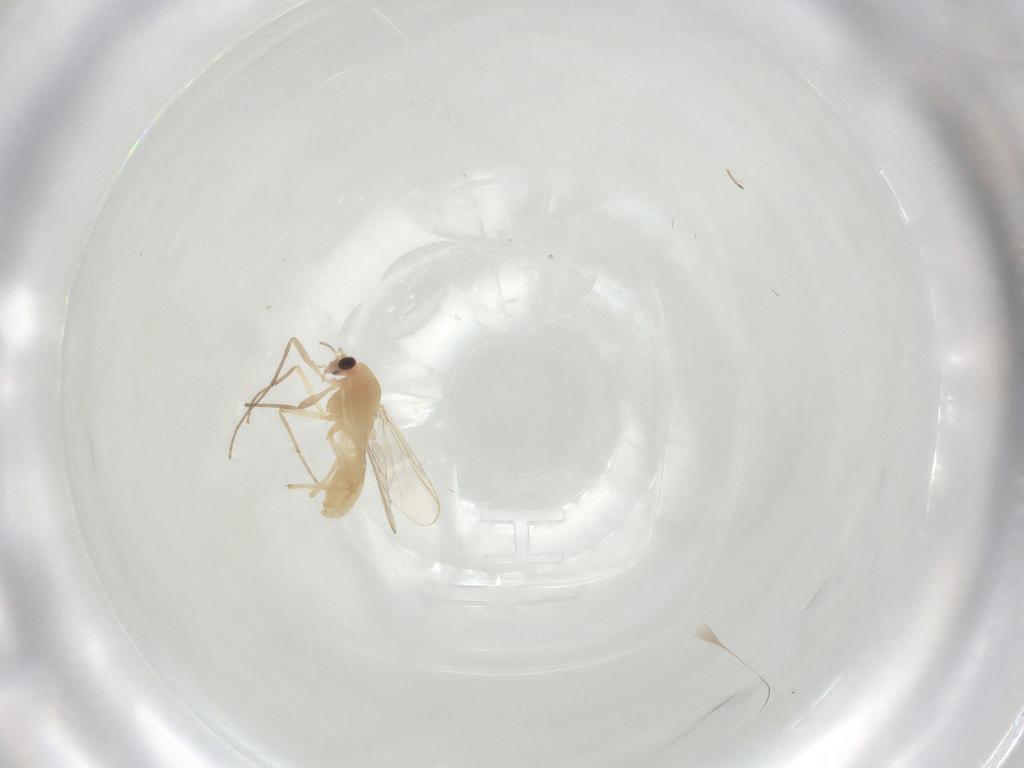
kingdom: Animalia
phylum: Arthropoda
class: Insecta
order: Diptera
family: Chironomidae
